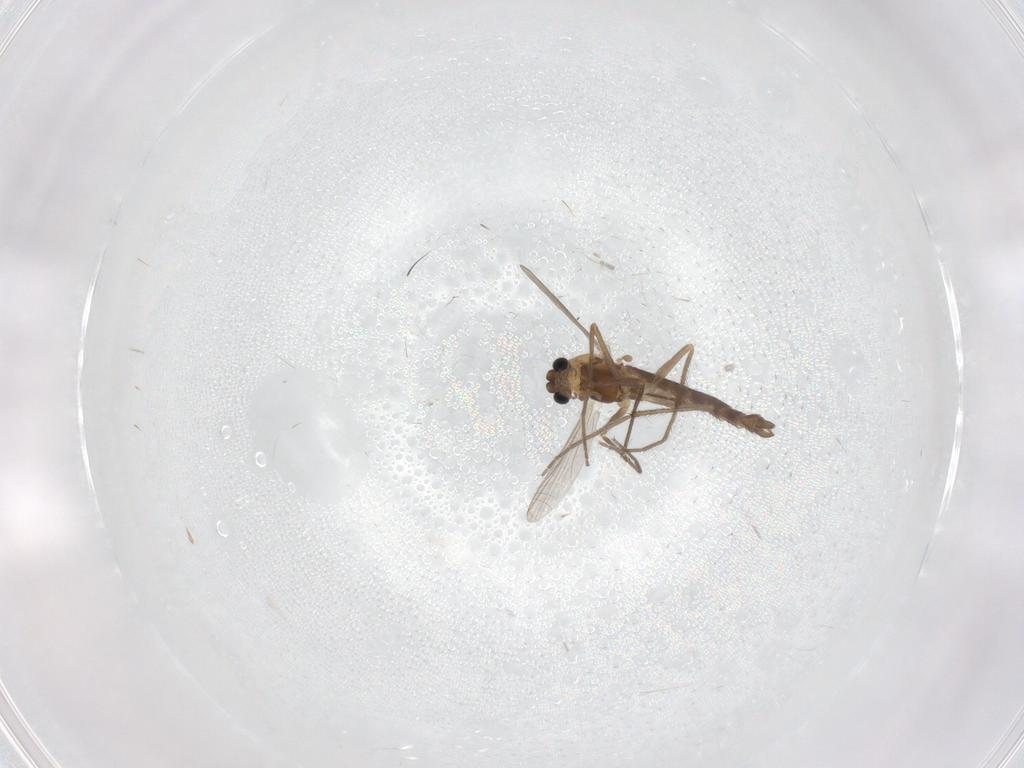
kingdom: Animalia
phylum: Arthropoda
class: Insecta
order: Diptera
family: Chironomidae
